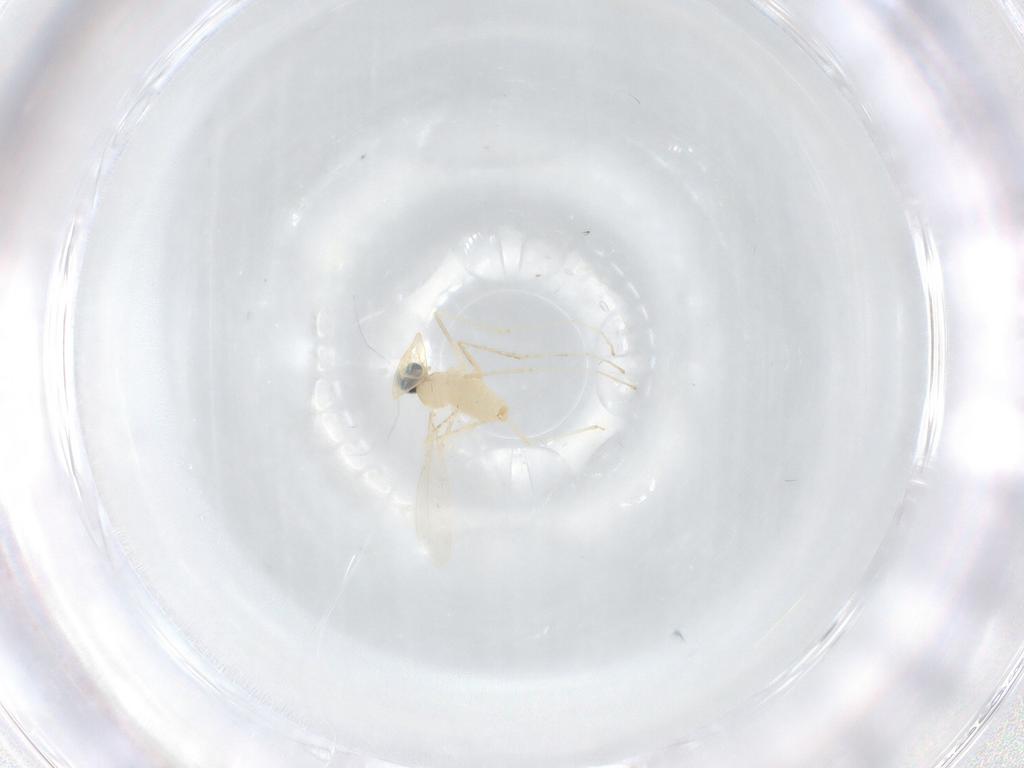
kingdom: Animalia
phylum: Arthropoda
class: Insecta
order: Diptera
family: Cecidomyiidae
